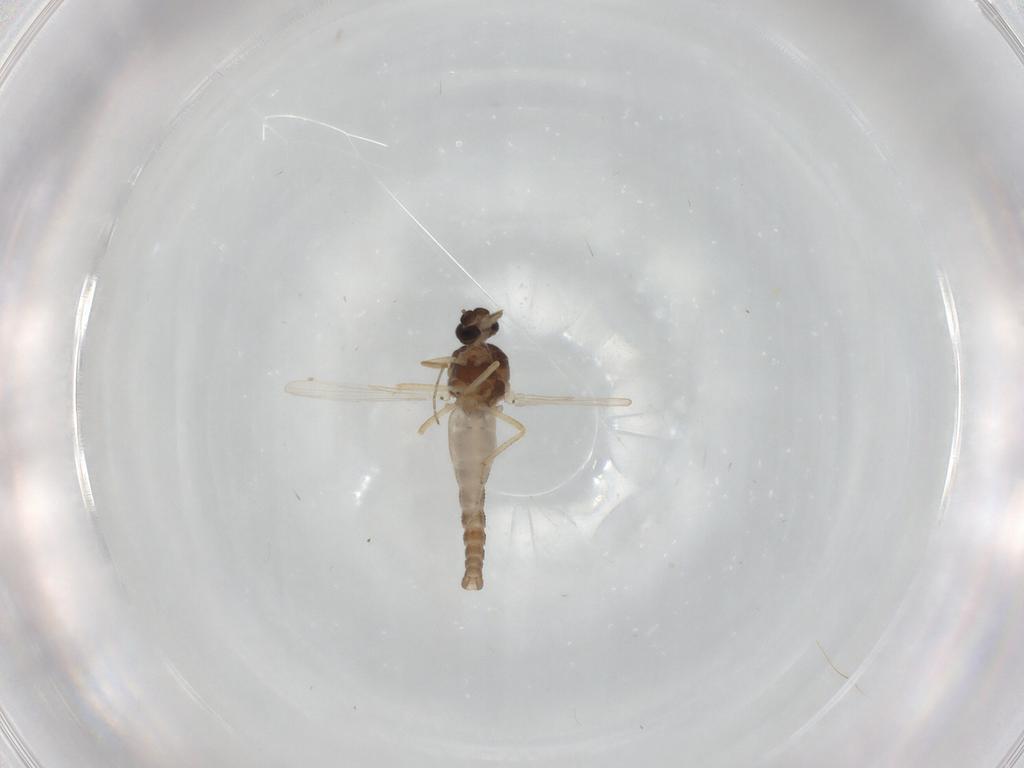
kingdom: Animalia
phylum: Arthropoda
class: Insecta
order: Diptera
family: Ceratopogonidae
